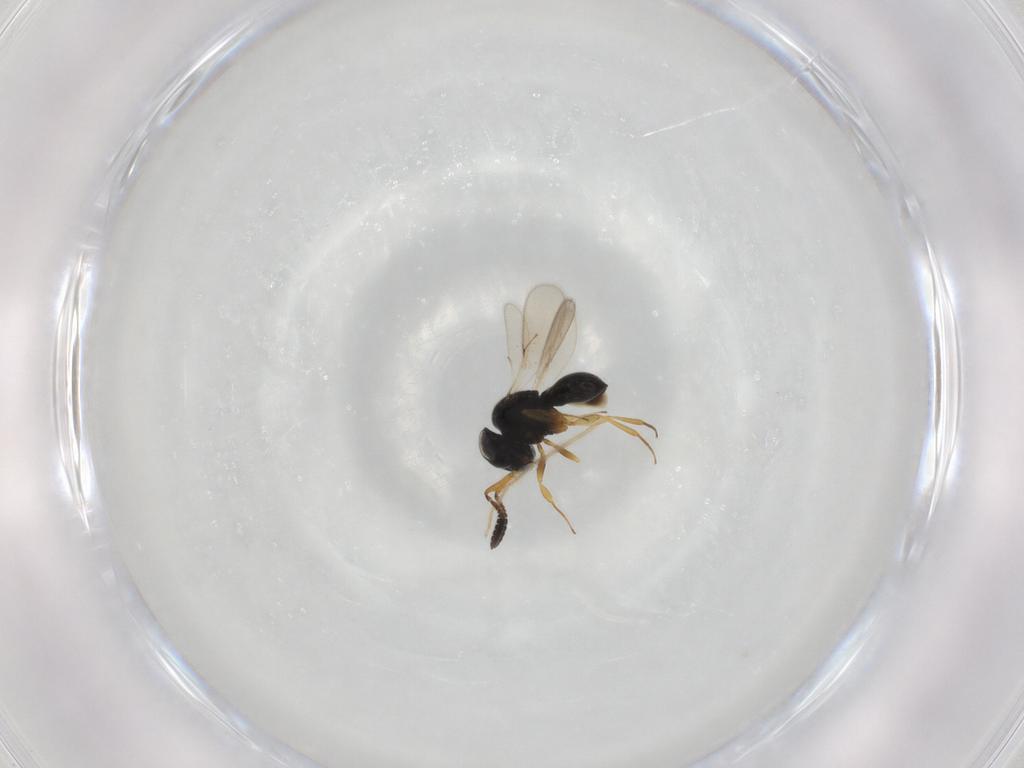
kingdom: Animalia
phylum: Arthropoda
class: Insecta
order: Hymenoptera
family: Scelionidae
